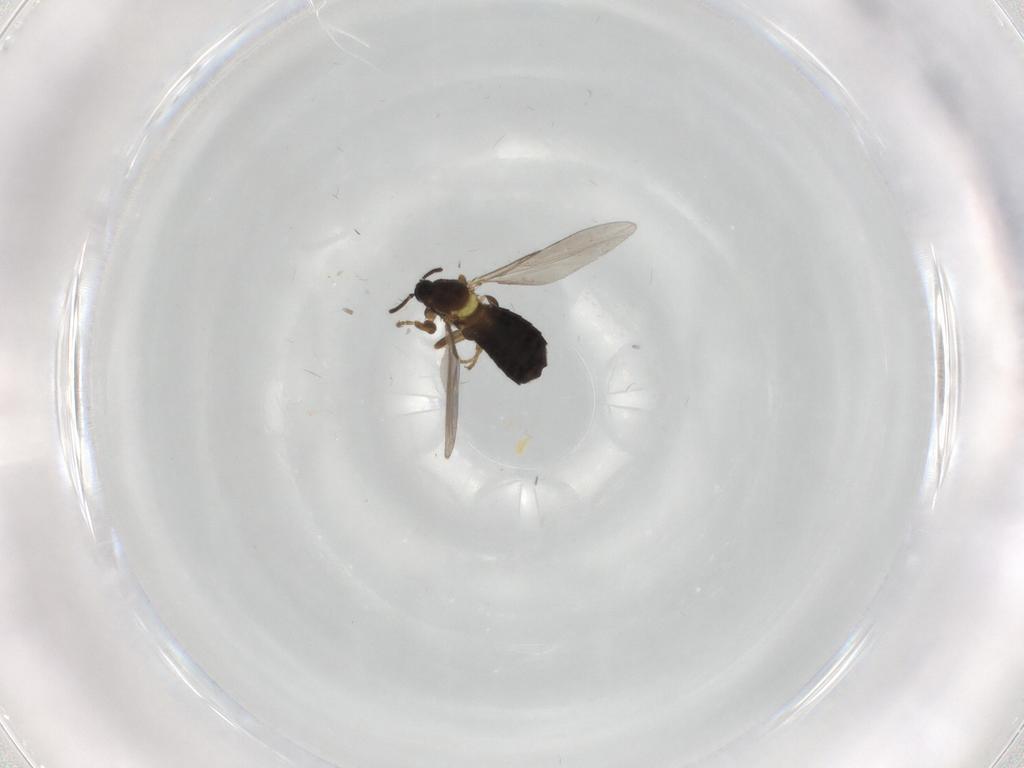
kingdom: Animalia
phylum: Arthropoda
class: Insecta
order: Diptera
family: Scatopsidae
